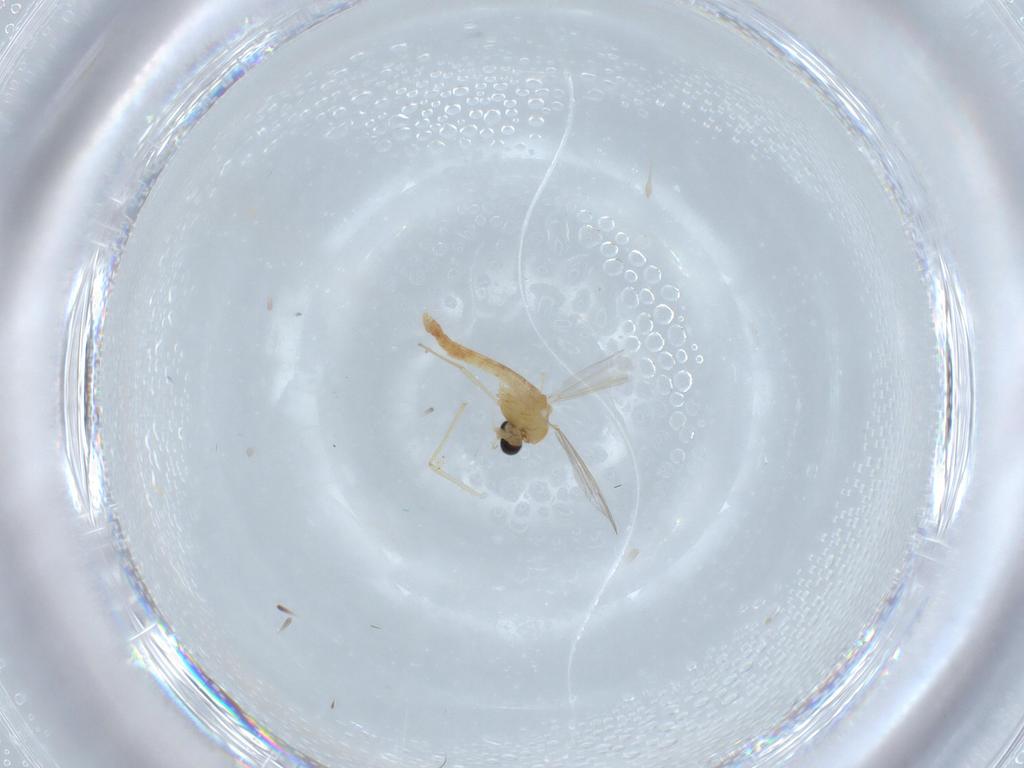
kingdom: Animalia
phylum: Arthropoda
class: Insecta
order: Diptera
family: Chironomidae
